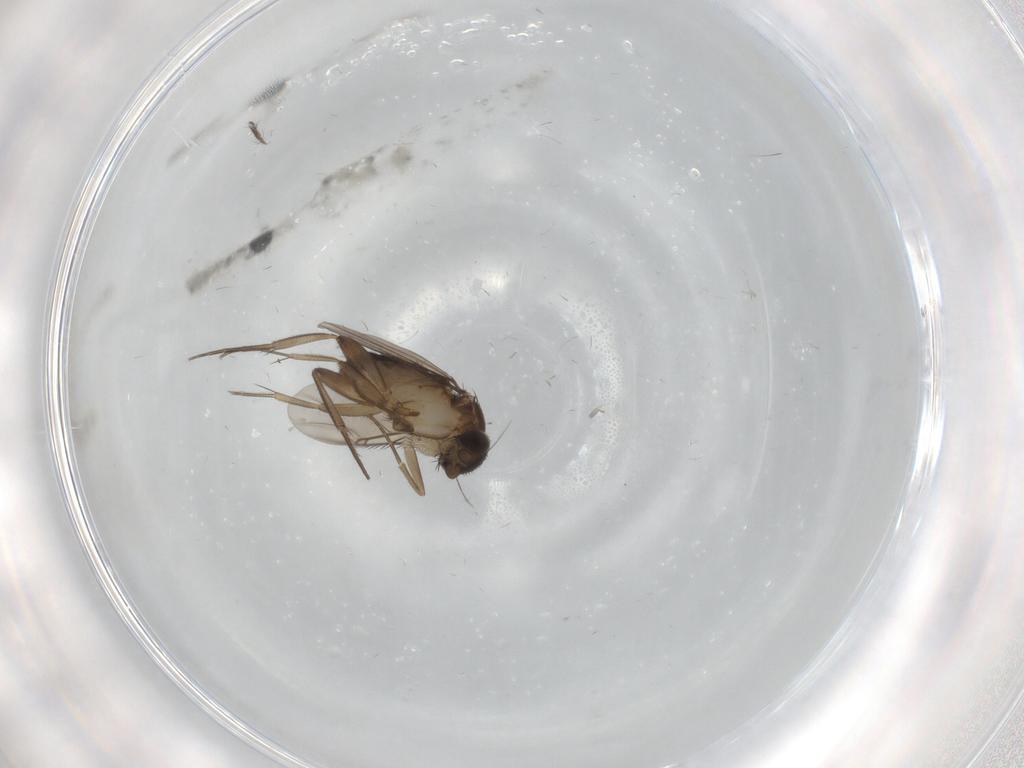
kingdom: Animalia
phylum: Arthropoda
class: Insecta
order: Diptera
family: Phoridae
